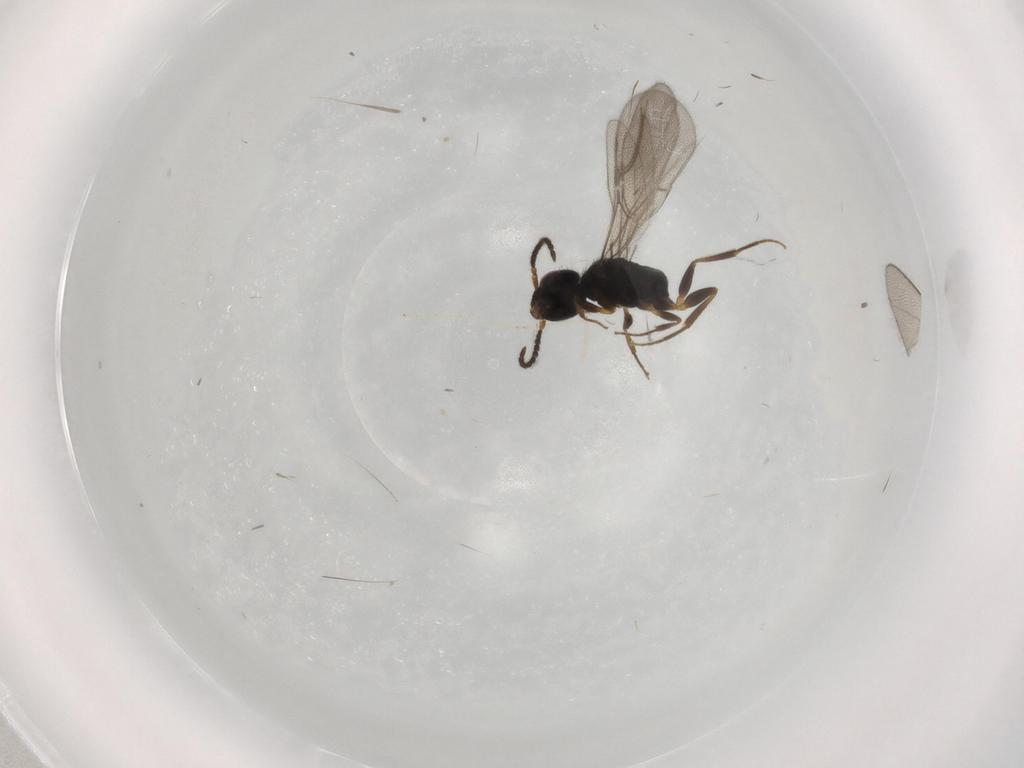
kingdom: Animalia
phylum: Arthropoda
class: Insecta
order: Hymenoptera
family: Bethylidae
